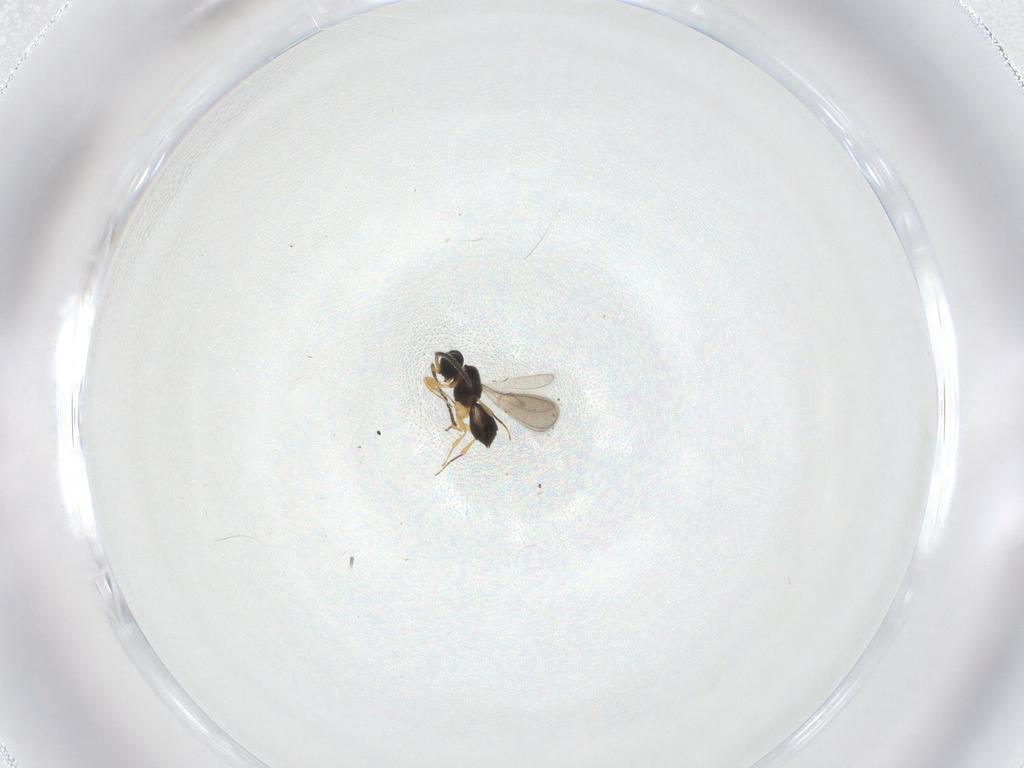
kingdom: Animalia
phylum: Arthropoda
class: Insecta
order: Hymenoptera
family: Scelionidae
